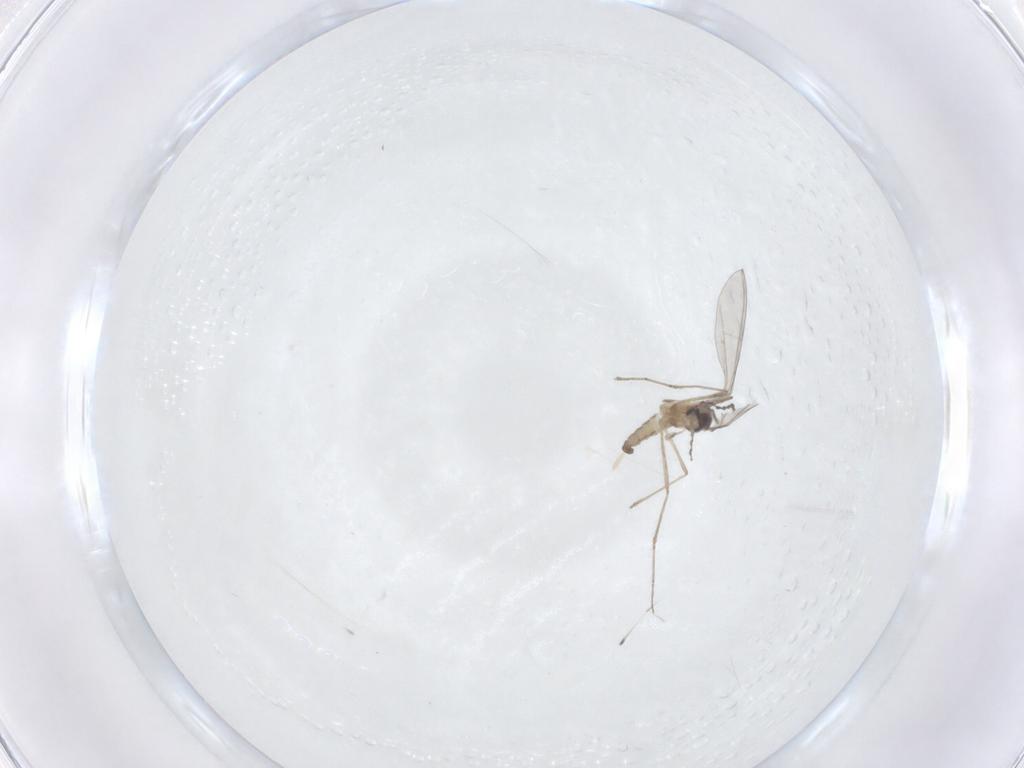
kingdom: Animalia
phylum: Arthropoda
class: Insecta
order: Diptera
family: Cecidomyiidae
